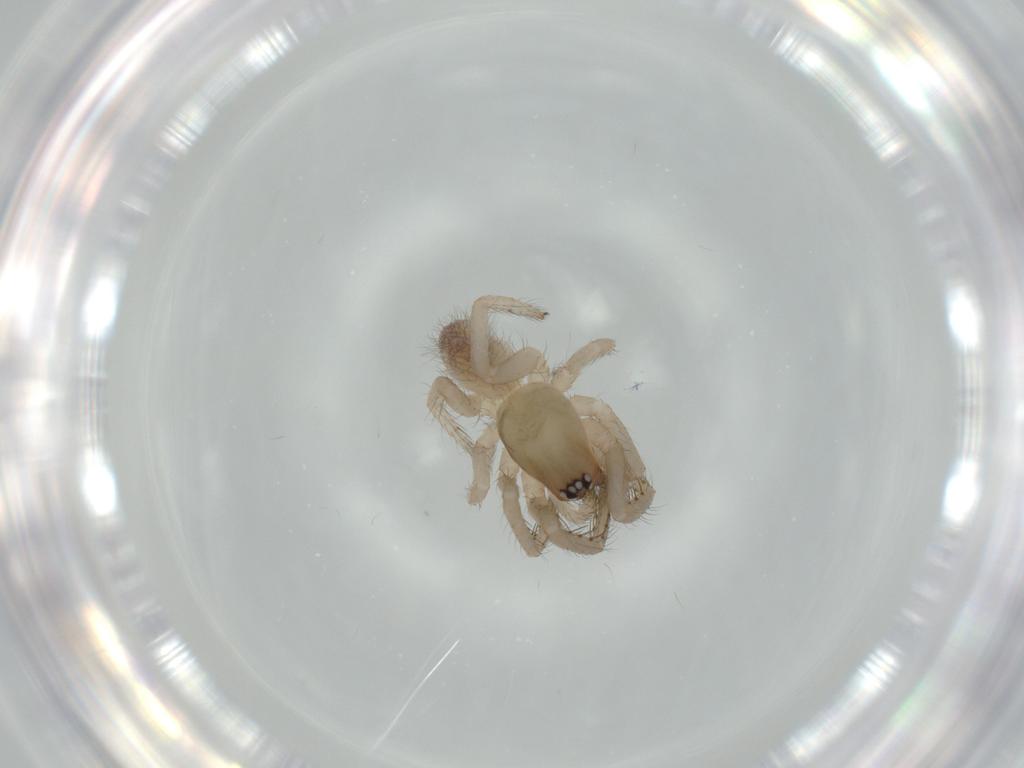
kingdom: Animalia
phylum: Arthropoda
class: Arachnida
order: Araneae
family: Segestriidae
